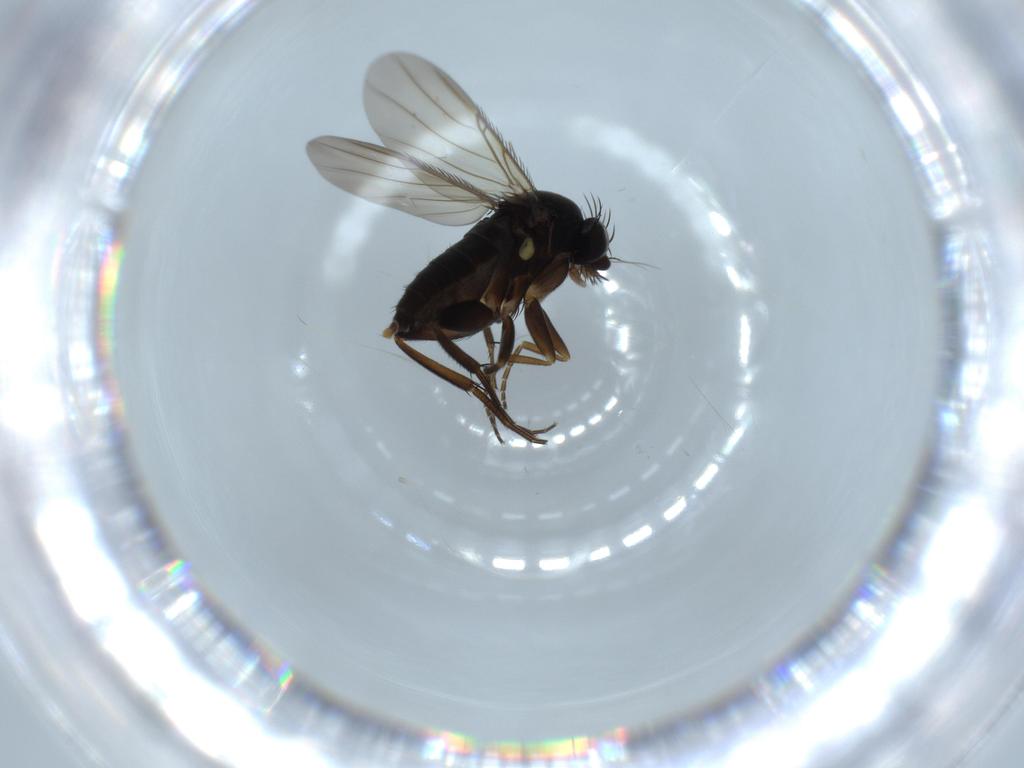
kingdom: Animalia
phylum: Arthropoda
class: Insecta
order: Diptera
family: Phoridae
